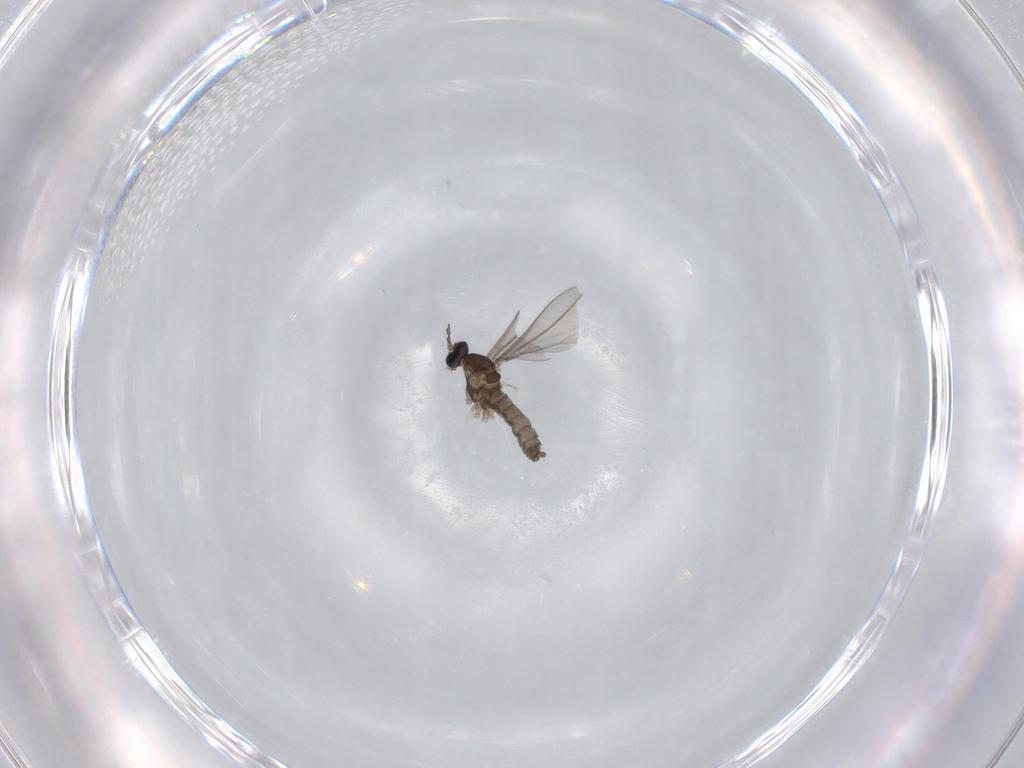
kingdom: Animalia
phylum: Arthropoda
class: Insecta
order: Diptera
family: Cecidomyiidae
